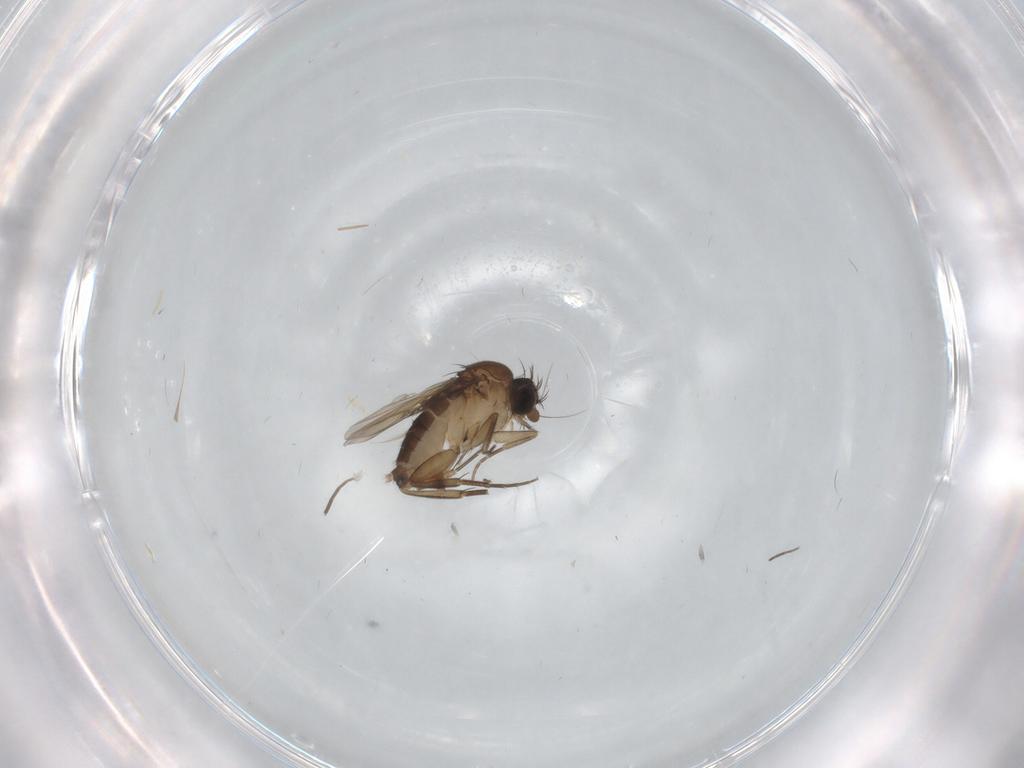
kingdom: Animalia
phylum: Arthropoda
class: Insecta
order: Diptera
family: Phoridae
